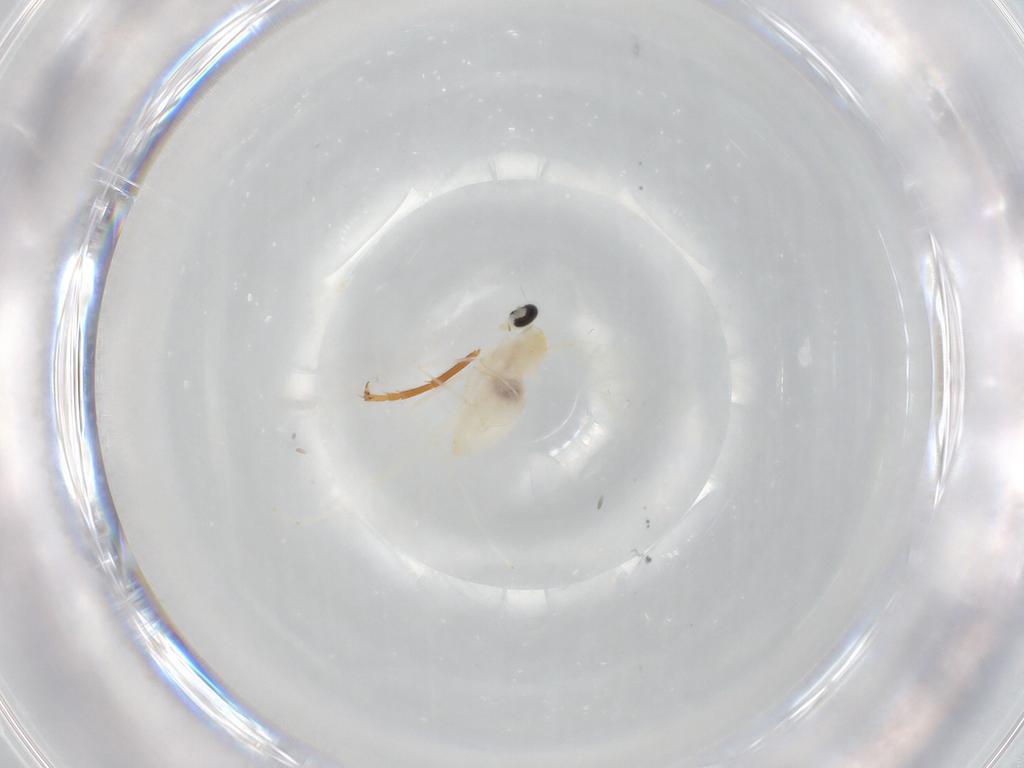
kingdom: Animalia
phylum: Arthropoda
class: Insecta
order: Diptera
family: Cecidomyiidae
